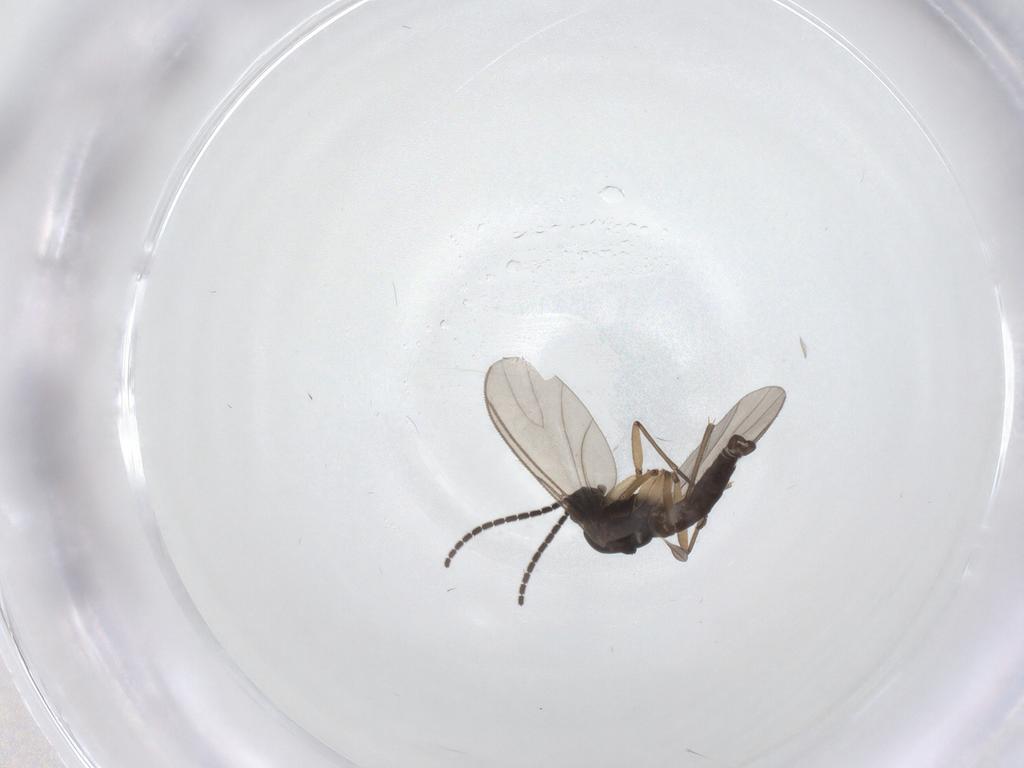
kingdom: Animalia
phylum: Arthropoda
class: Insecta
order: Diptera
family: Sciaridae
